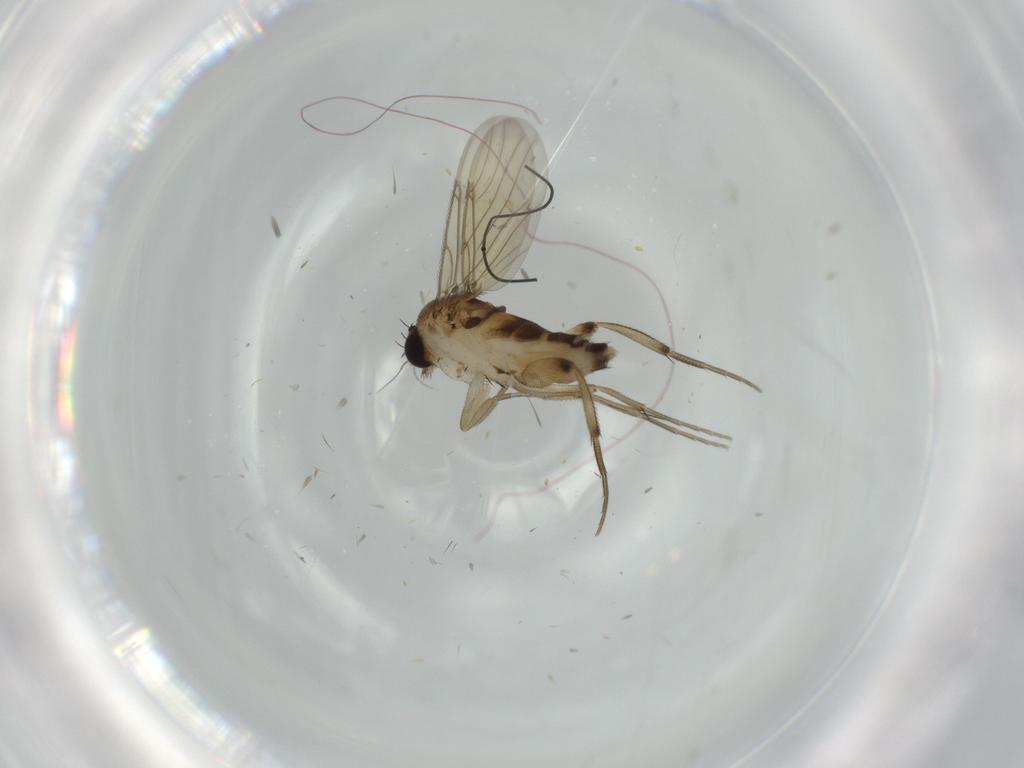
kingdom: Animalia
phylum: Arthropoda
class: Insecta
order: Diptera
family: Phoridae
